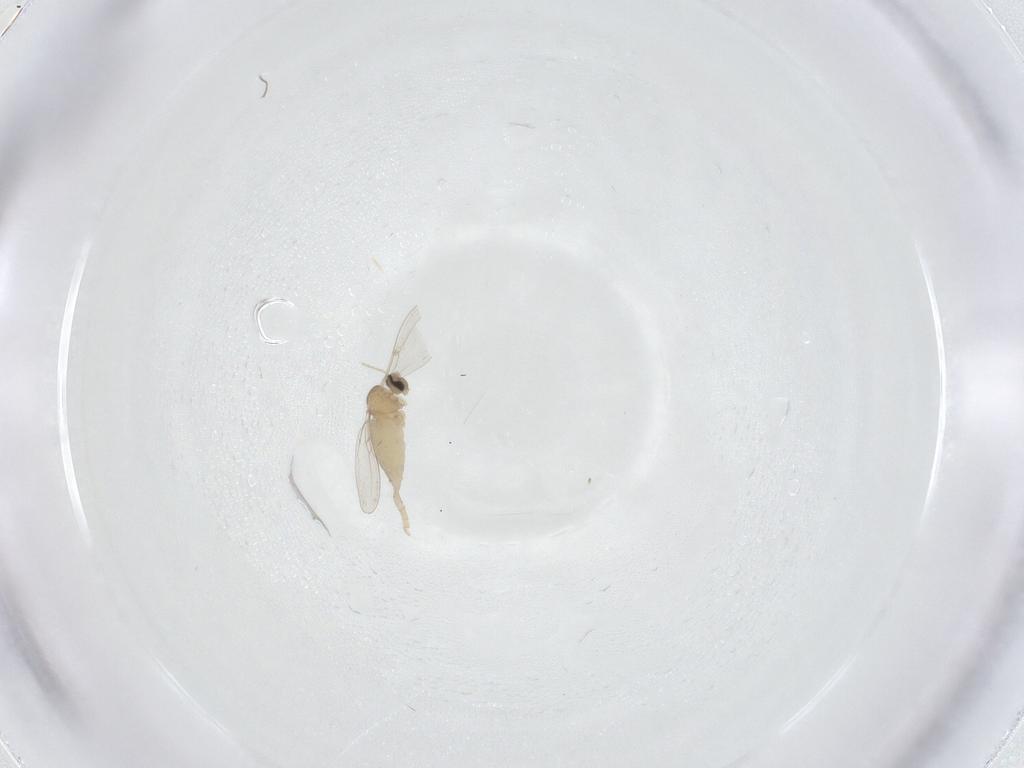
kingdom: Animalia
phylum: Arthropoda
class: Insecta
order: Diptera
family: Cecidomyiidae
